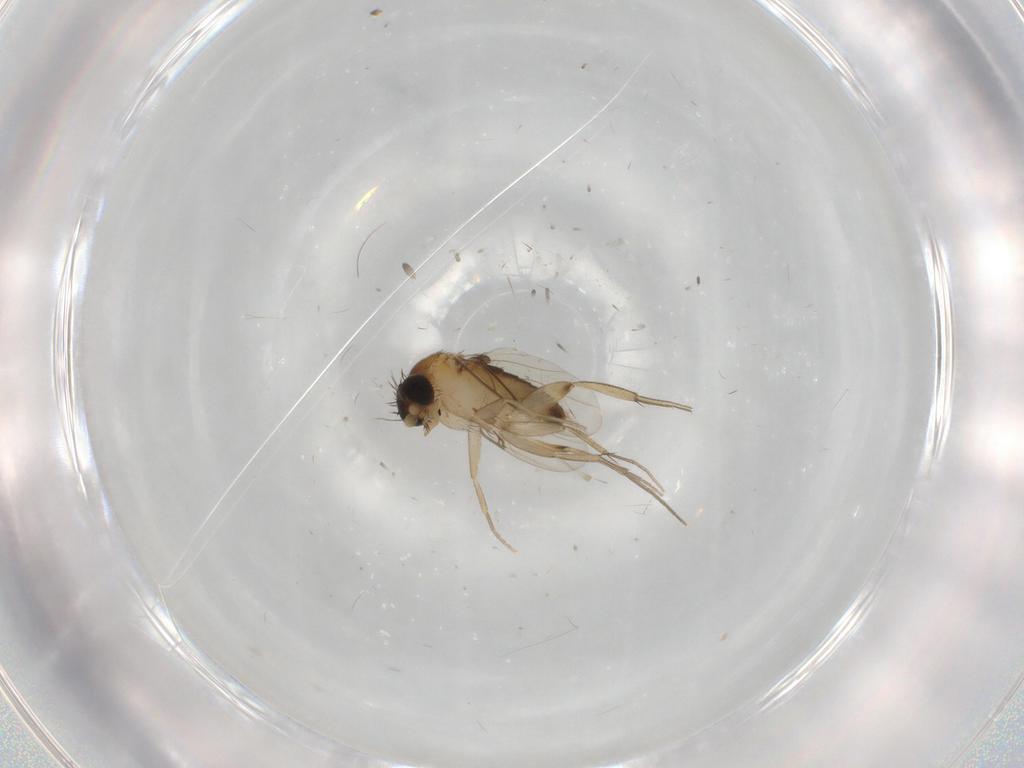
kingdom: Animalia
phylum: Arthropoda
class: Insecta
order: Diptera
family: Phoridae
